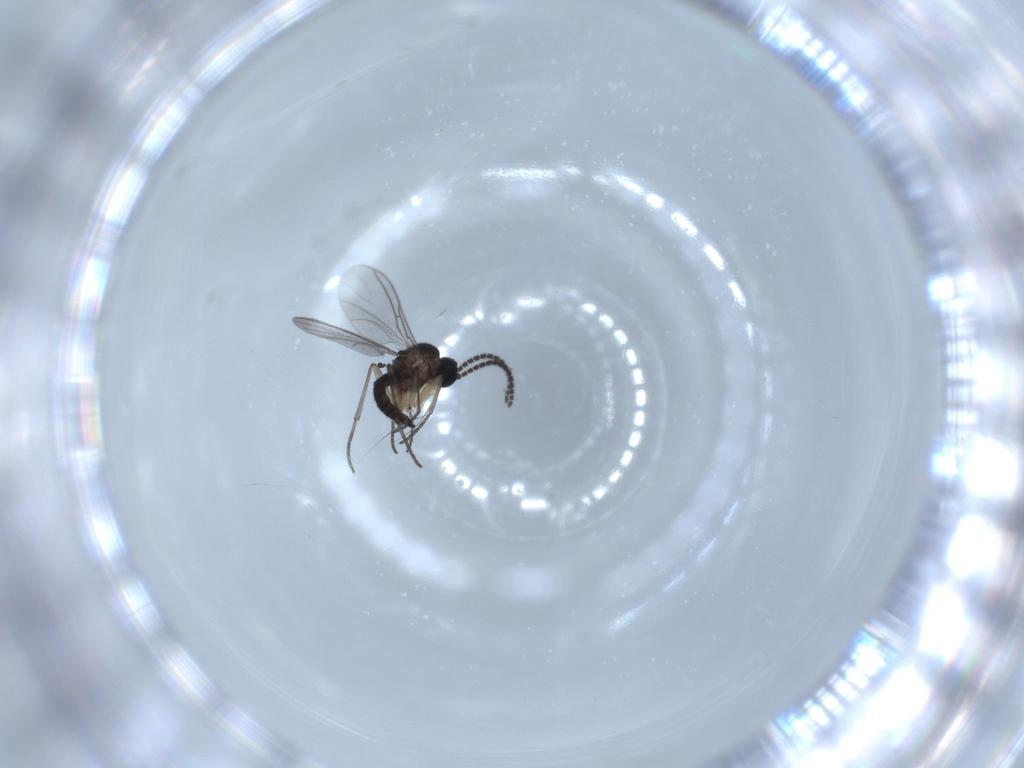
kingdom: Animalia
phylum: Arthropoda
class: Insecta
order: Diptera
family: Sciaridae
